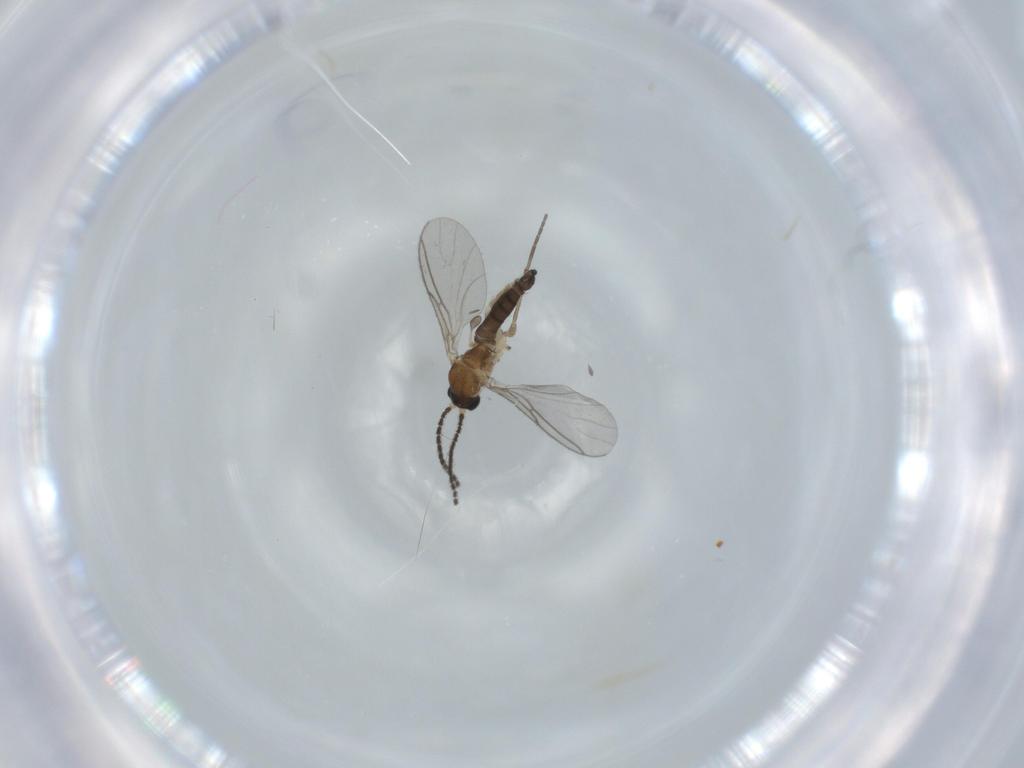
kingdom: Animalia
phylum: Arthropoda
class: Insecta
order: Diptera
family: Sciaridae
